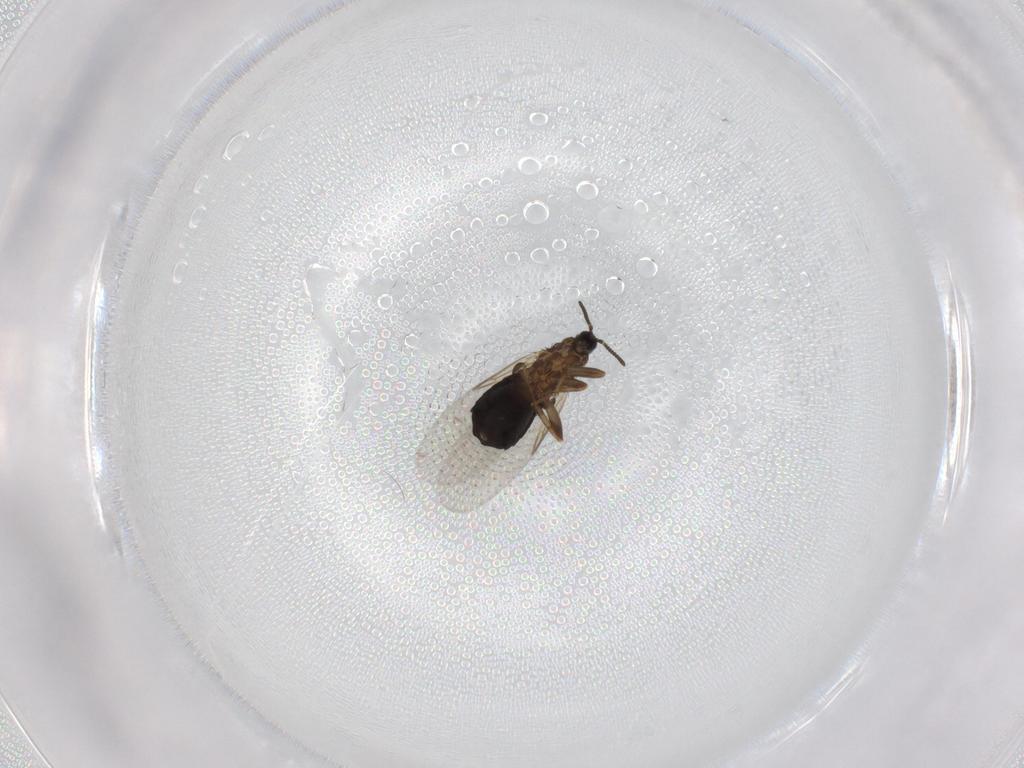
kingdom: Animalia
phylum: Arthropoda
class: Insecta
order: Diptera
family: Scatopsidae
